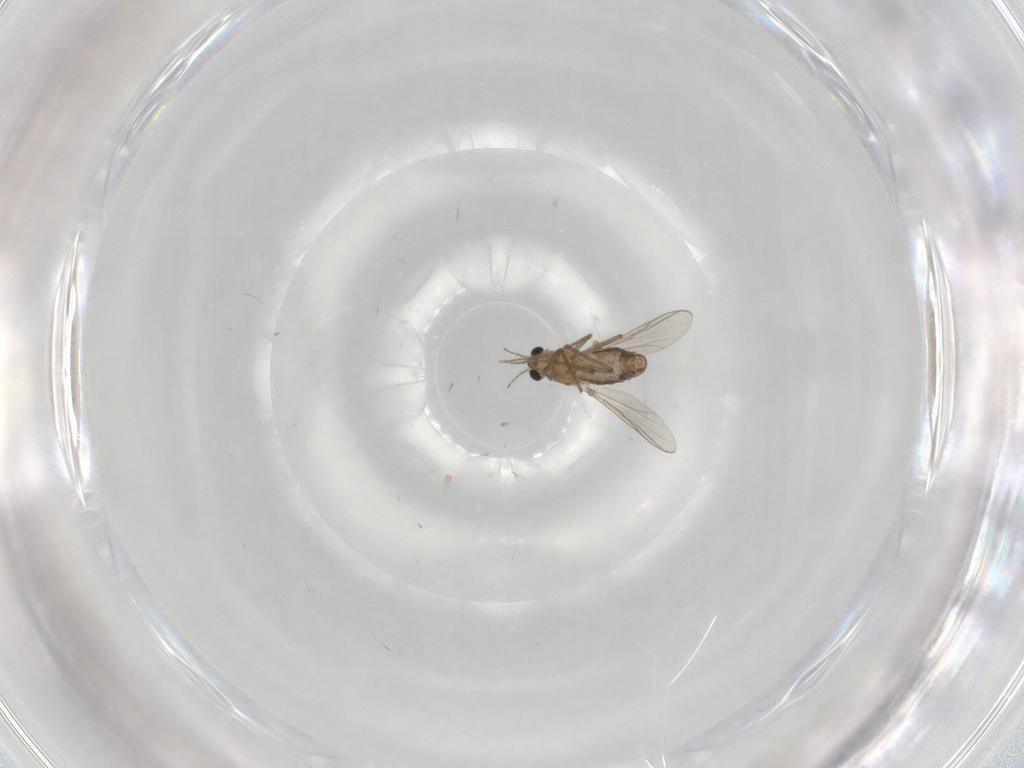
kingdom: Animalia
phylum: Arthropoda
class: Insecta
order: Diptera
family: Chironomidae
